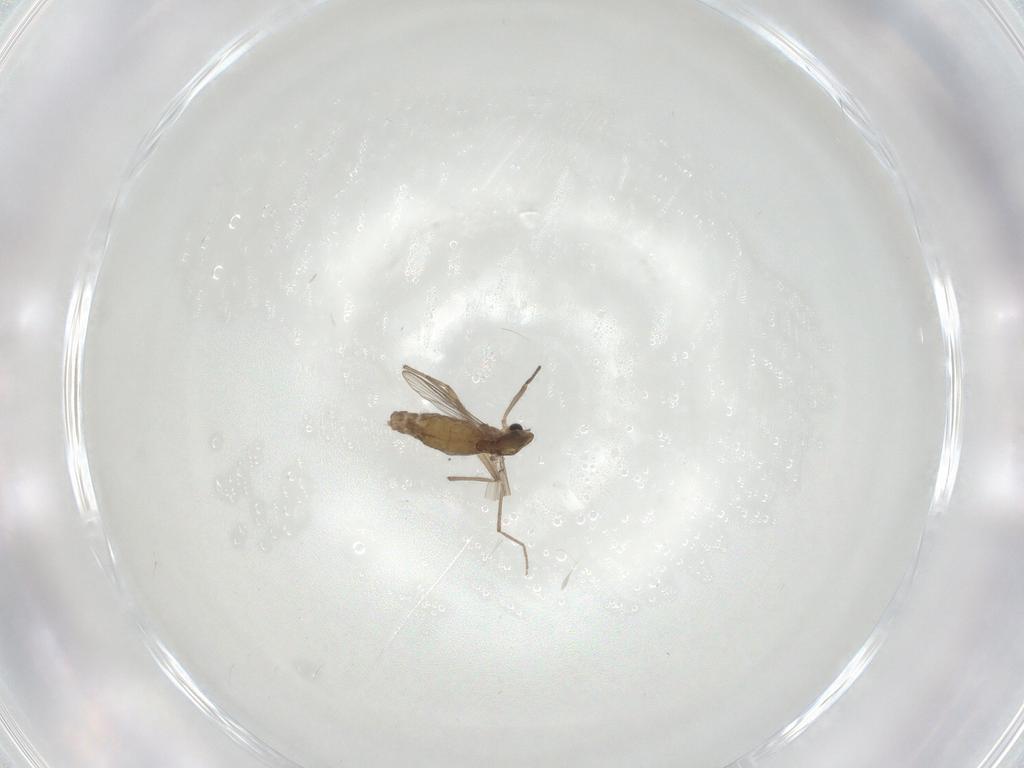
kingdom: Animalia
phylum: Arthropoda
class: Insecta
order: Diptera
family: Chironomidae
